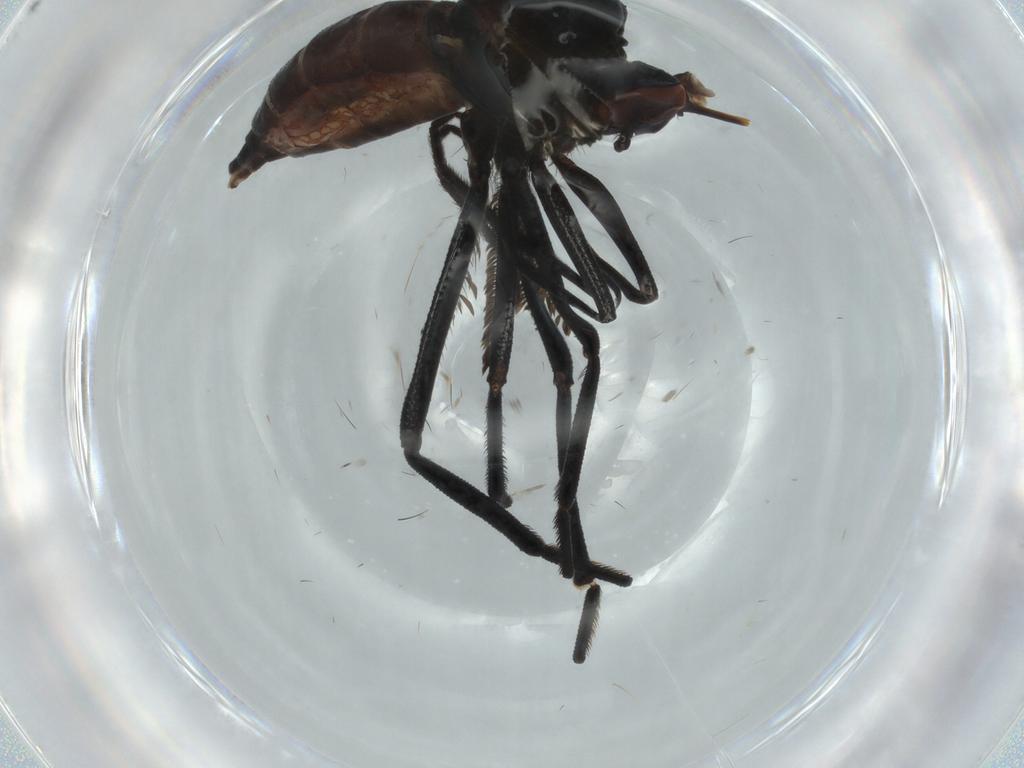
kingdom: Animalia
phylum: Arthropoda
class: Insecta
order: Diptera
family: Empididae
